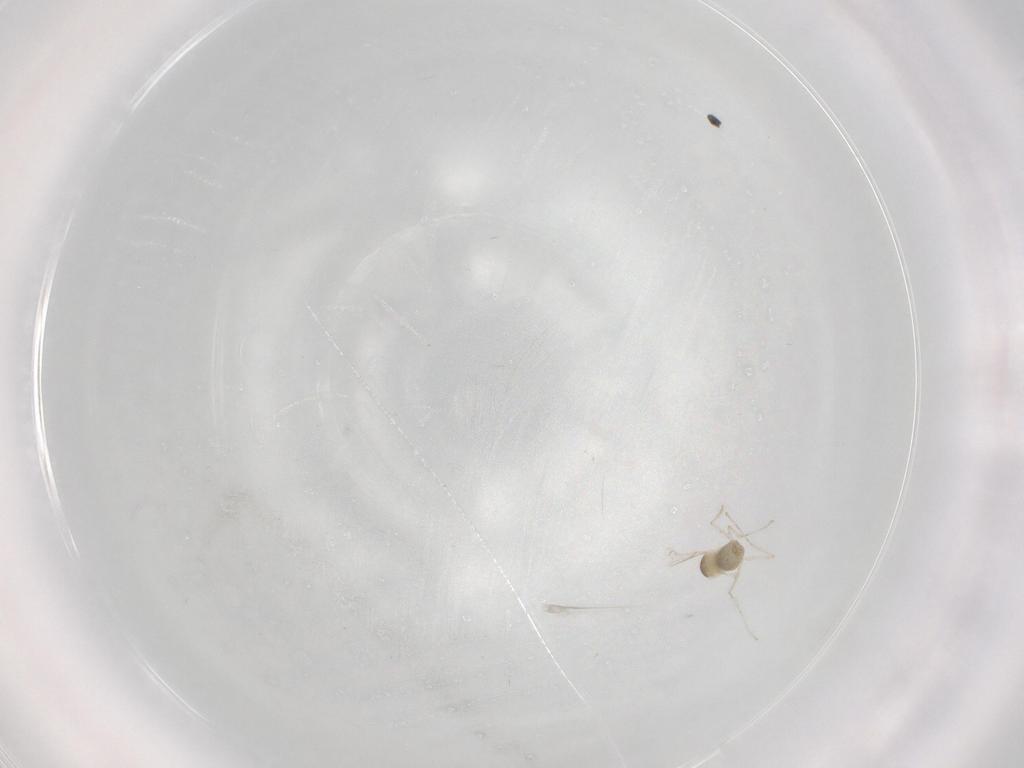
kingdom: Animalia
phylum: Arthropoda
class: Insecta
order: Diptera
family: Cecidomyiidae
